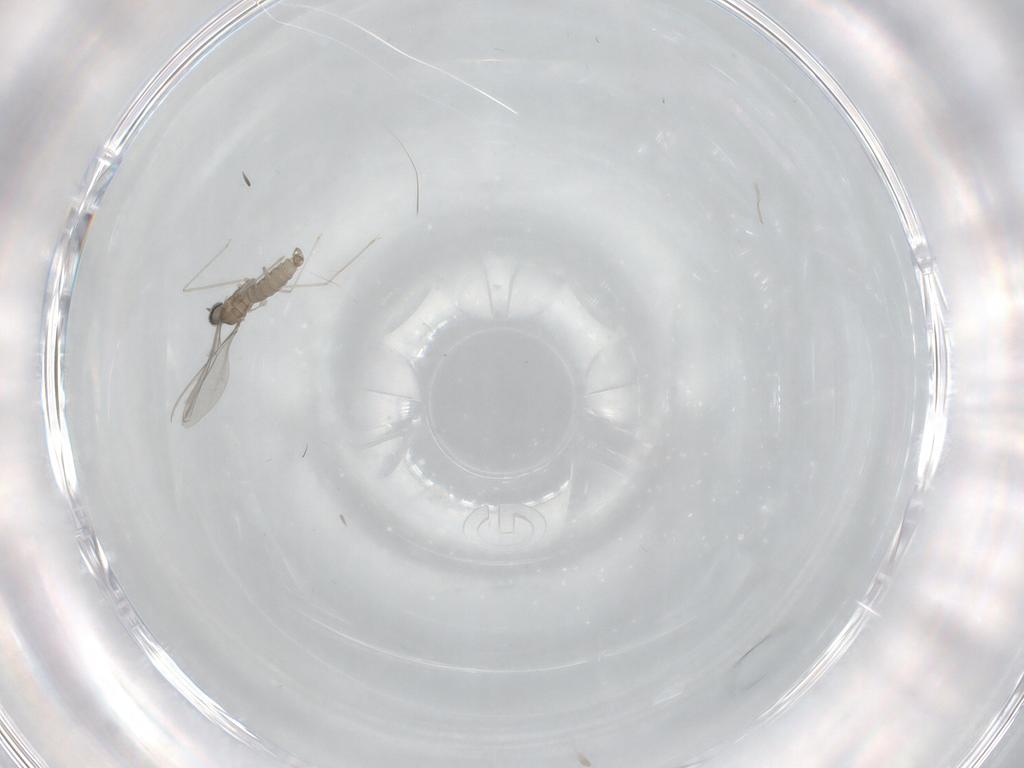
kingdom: Animalia
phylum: Arthropoda
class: Insecta
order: Diptera
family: Cecidomyiidae
